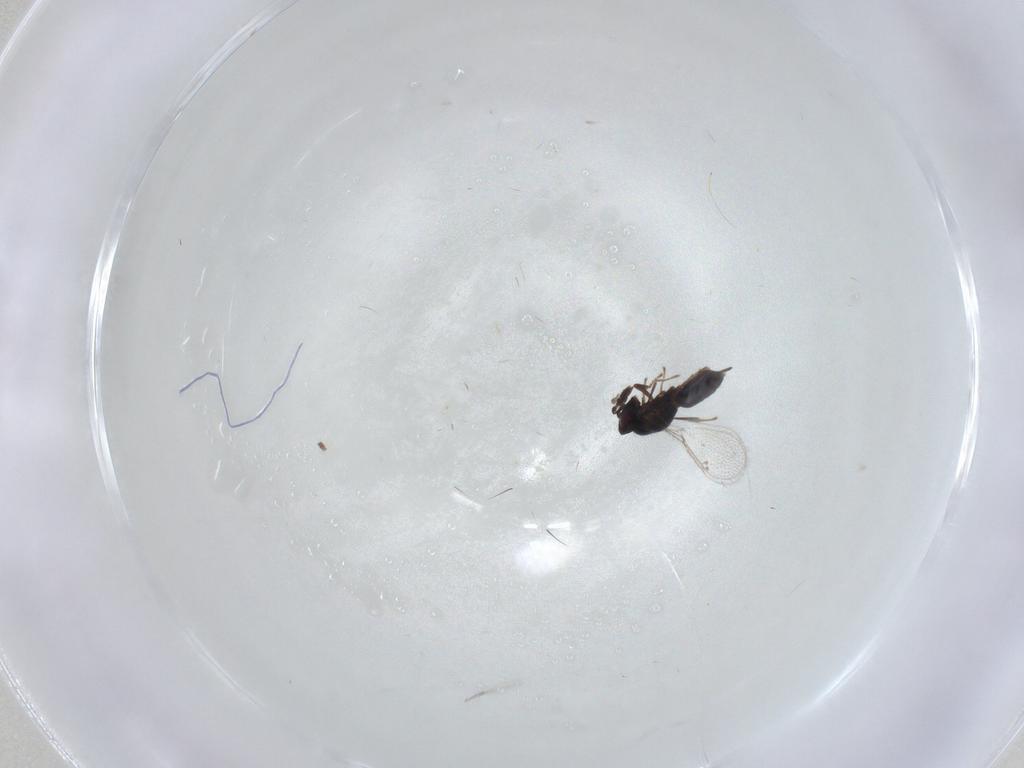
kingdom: Animalia
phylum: Arthropoda
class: Insecta
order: Hymenoptera
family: Pirenidae
